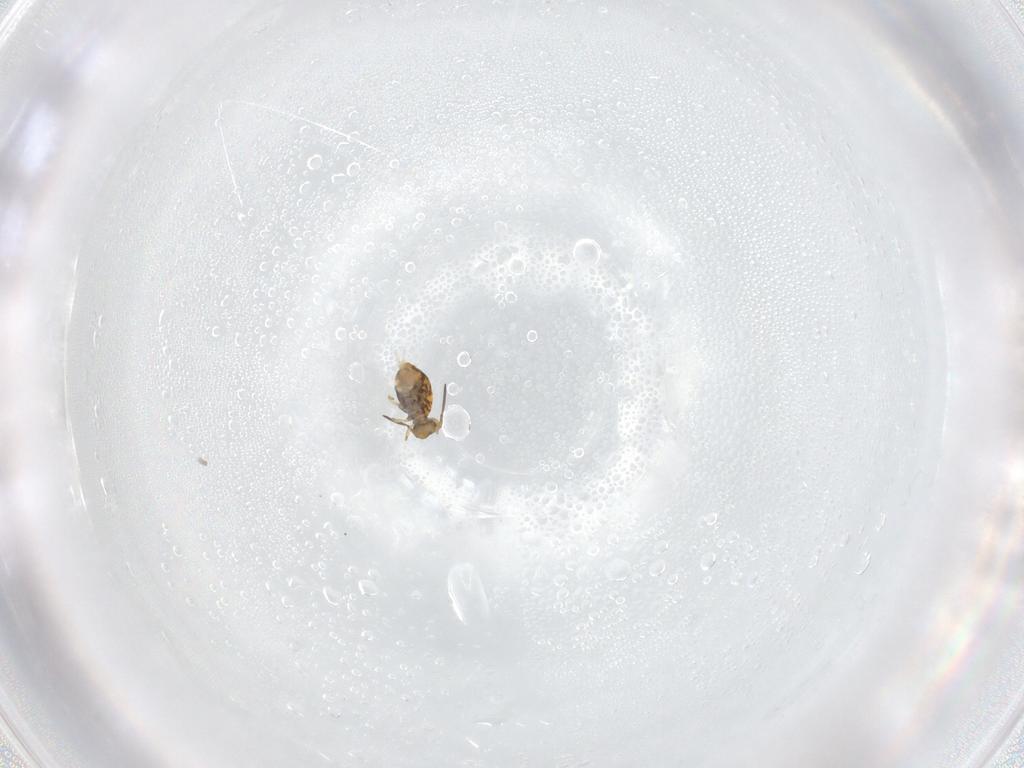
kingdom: Animalia
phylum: Arthropoda
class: Collembola
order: Symphypleona
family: Katiannidae
